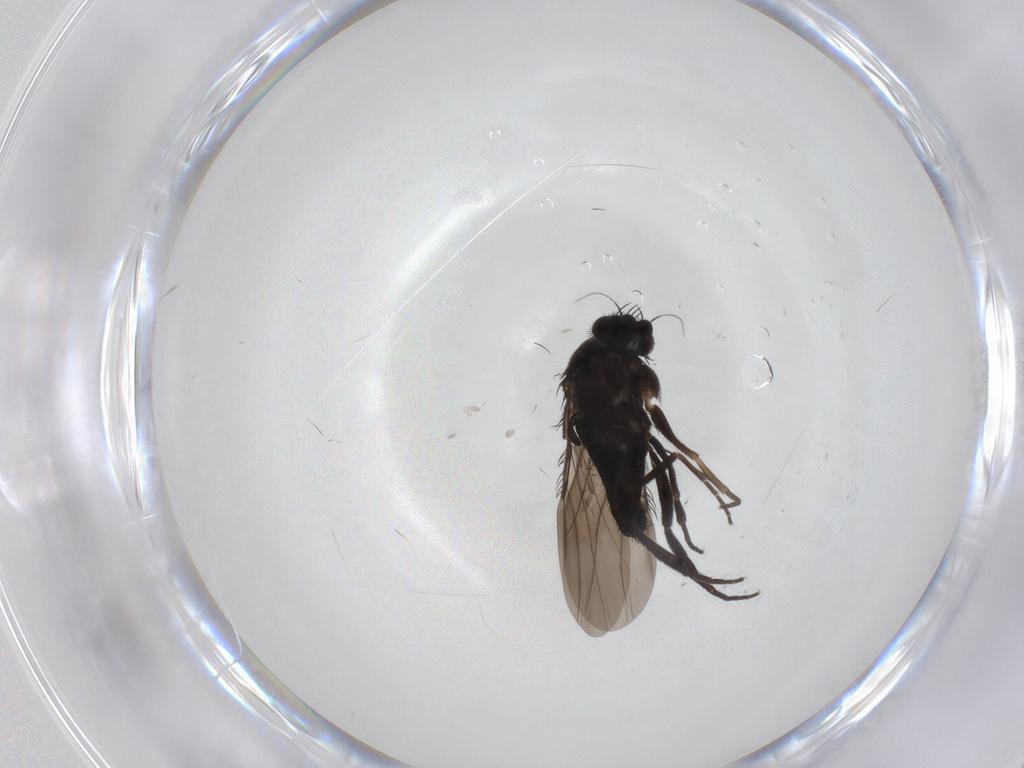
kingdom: Animalia
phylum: Arthropoda
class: Insecta
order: Diptera
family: Phoridae
